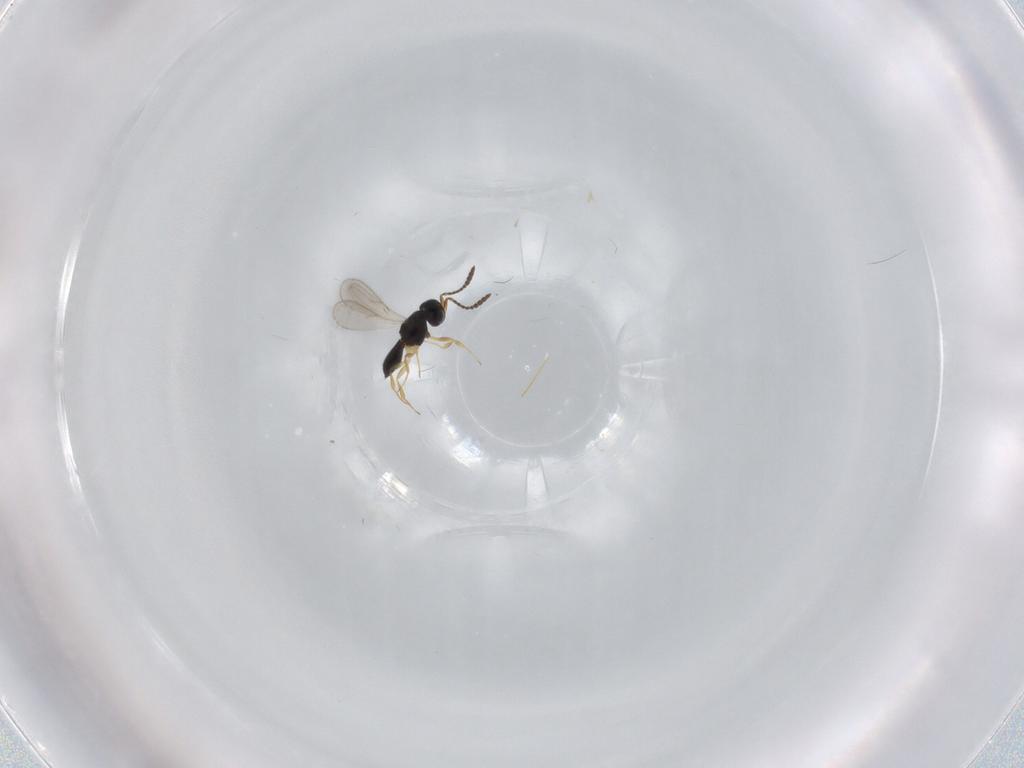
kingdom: Animalia
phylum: Arthropoda
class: Insecta
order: Hymenoptera
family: Scelionidae
